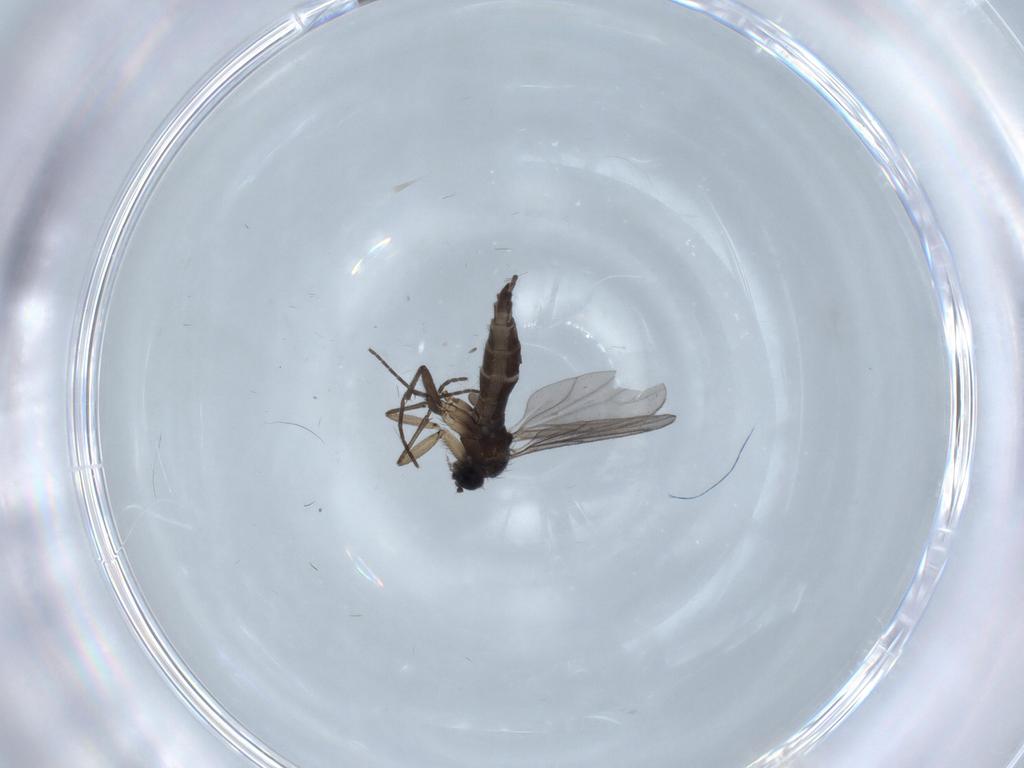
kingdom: Animalia
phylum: Arthropoda
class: Insecta
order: Diptera
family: Sciaridae
